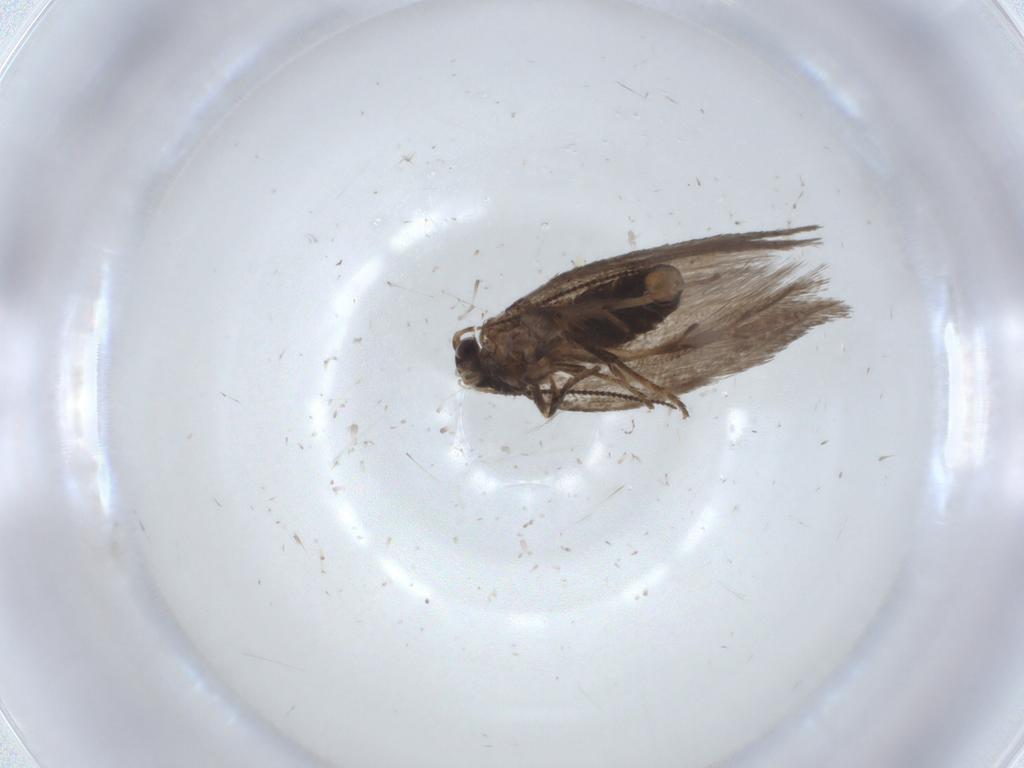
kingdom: Animalia
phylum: Arthropoda
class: Insecta
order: Lepidoptera
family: Nepticulidae
